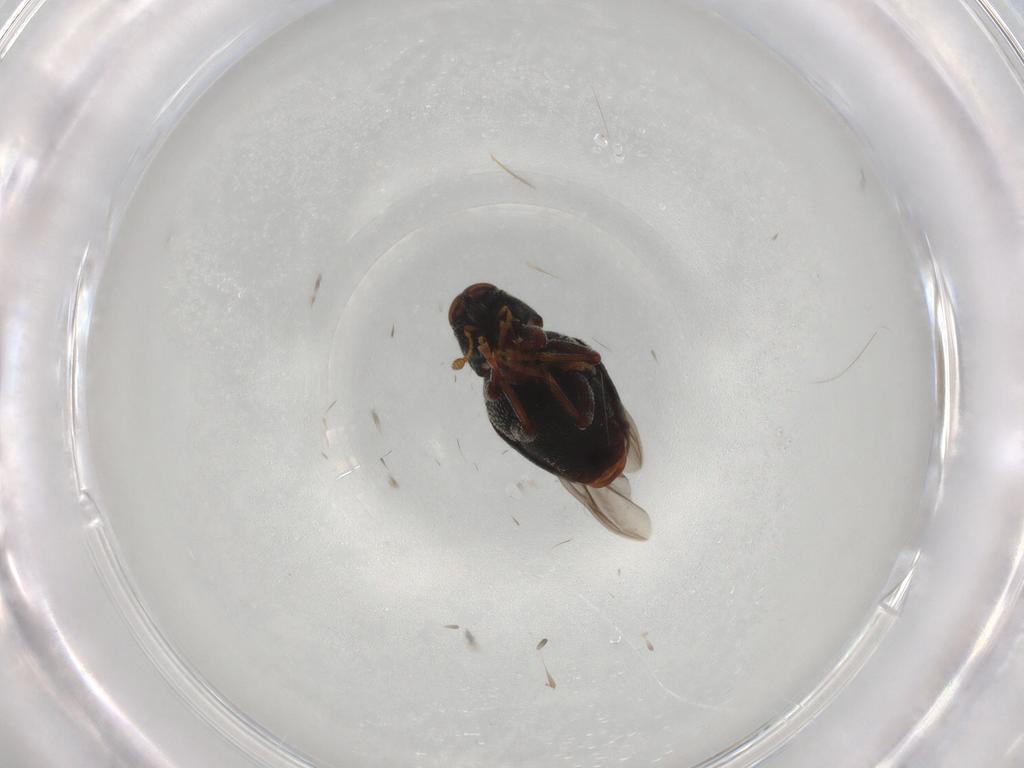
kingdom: Animalia
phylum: Arthropoda
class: Insecta
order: Coleoptera
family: Curculionidae
